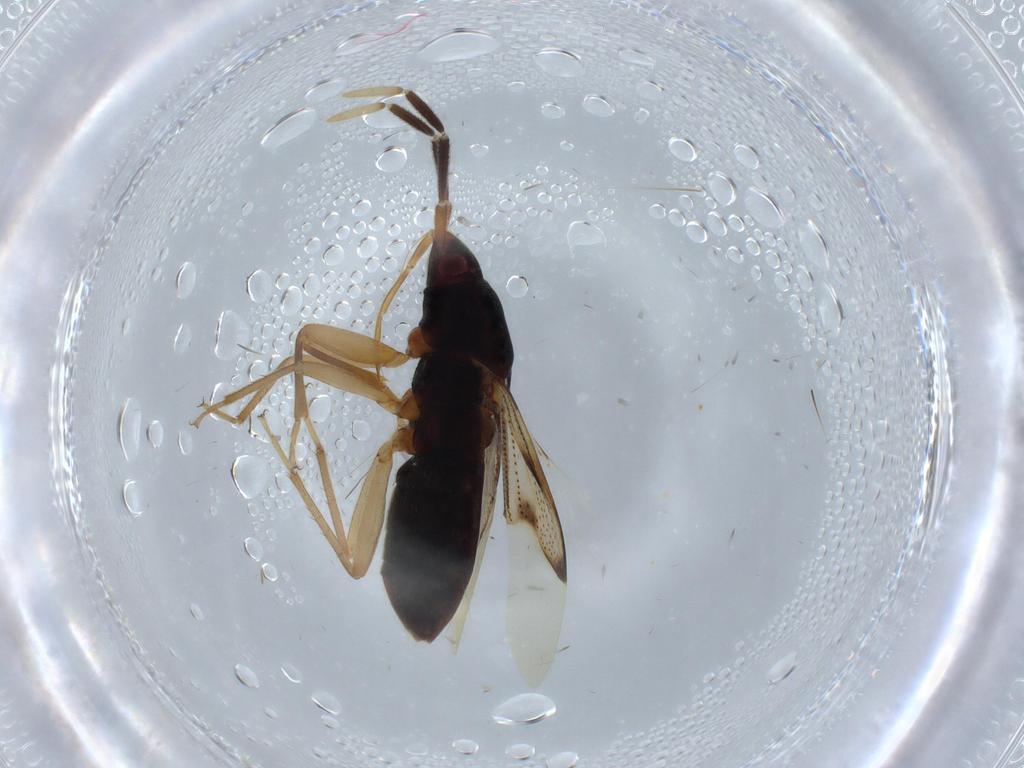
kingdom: Animalia
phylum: Arthropoda
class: Insecta
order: Hemiptera
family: Rhyparochromidae
